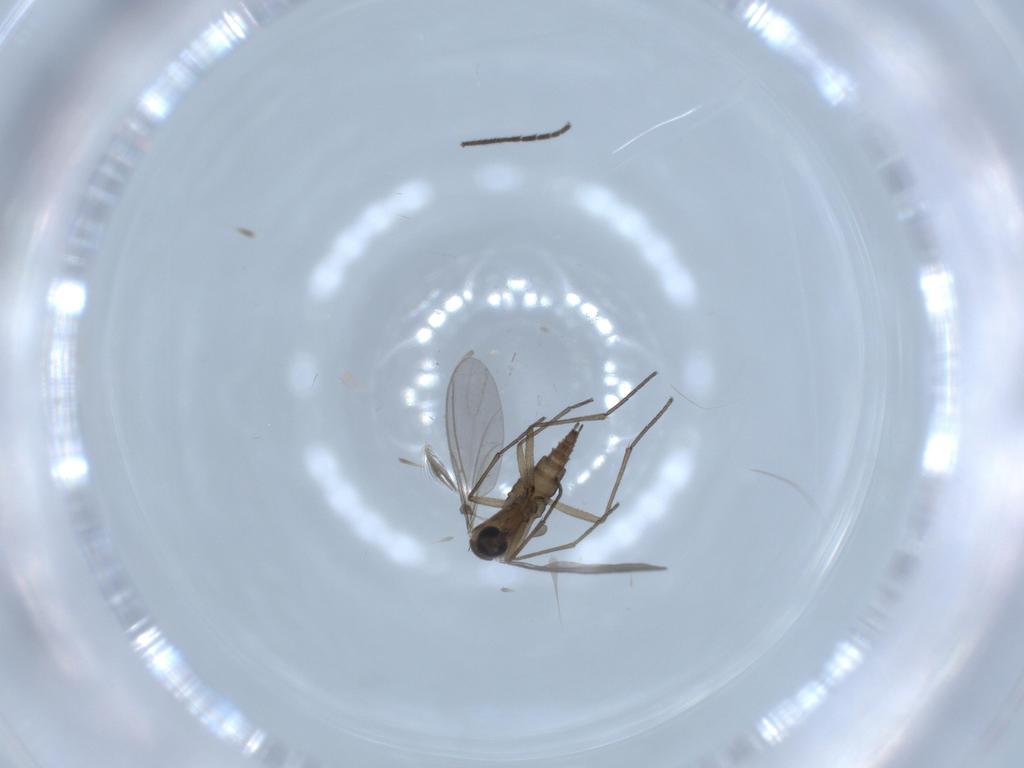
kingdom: Animalia
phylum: Arthropoda
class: Insecta
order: Diptera
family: Ceratopogonidae
